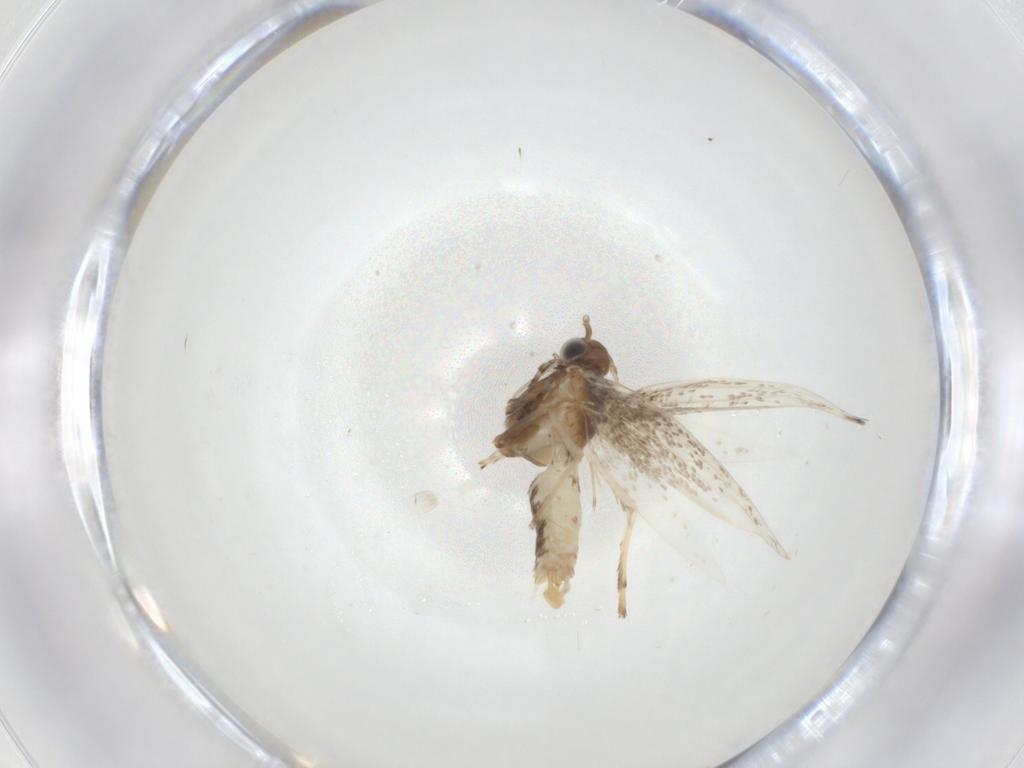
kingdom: Animalia
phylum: Arthropoda
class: Insecta
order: Lepidoptera
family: Gracillariidae
